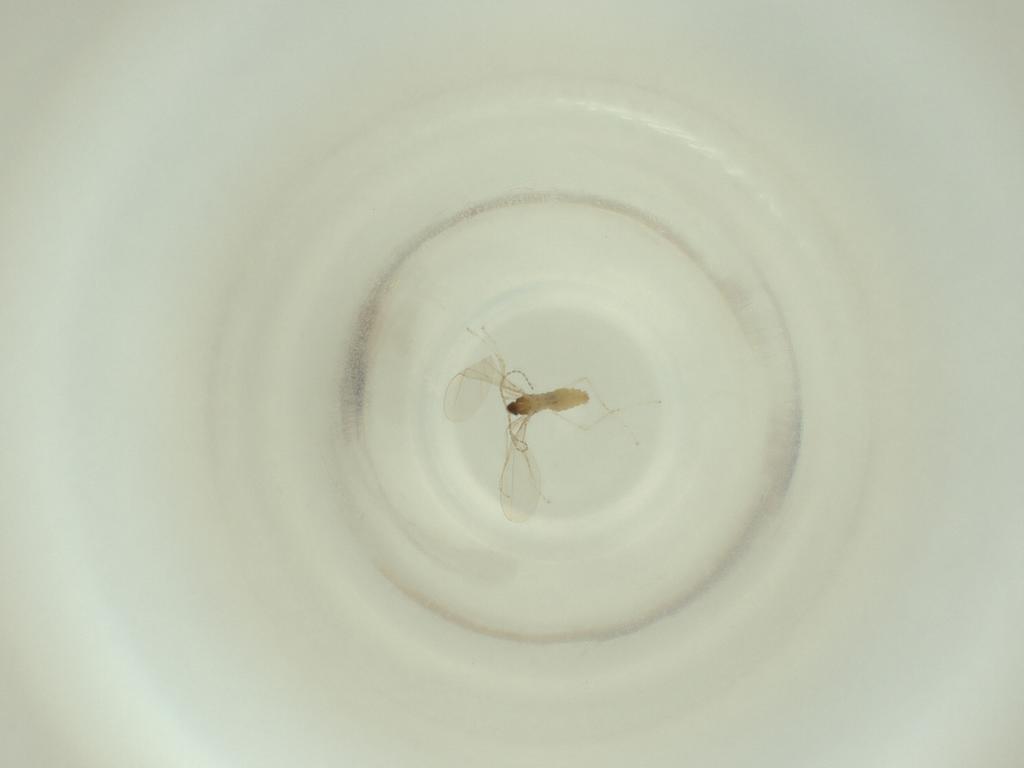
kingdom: Animalia
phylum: Arthropoda
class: Insecta
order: Diptera
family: Cecidomyiidae
